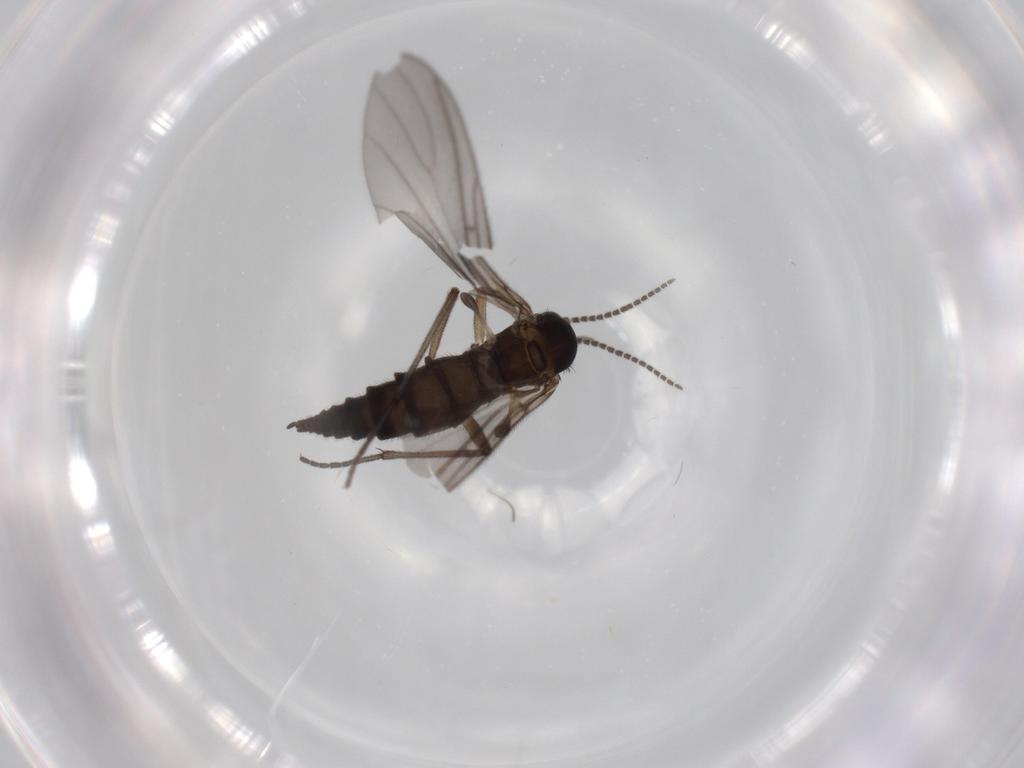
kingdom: Animalia
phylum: Arthropoda
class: Insecta
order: Diptera
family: Sciaridae
